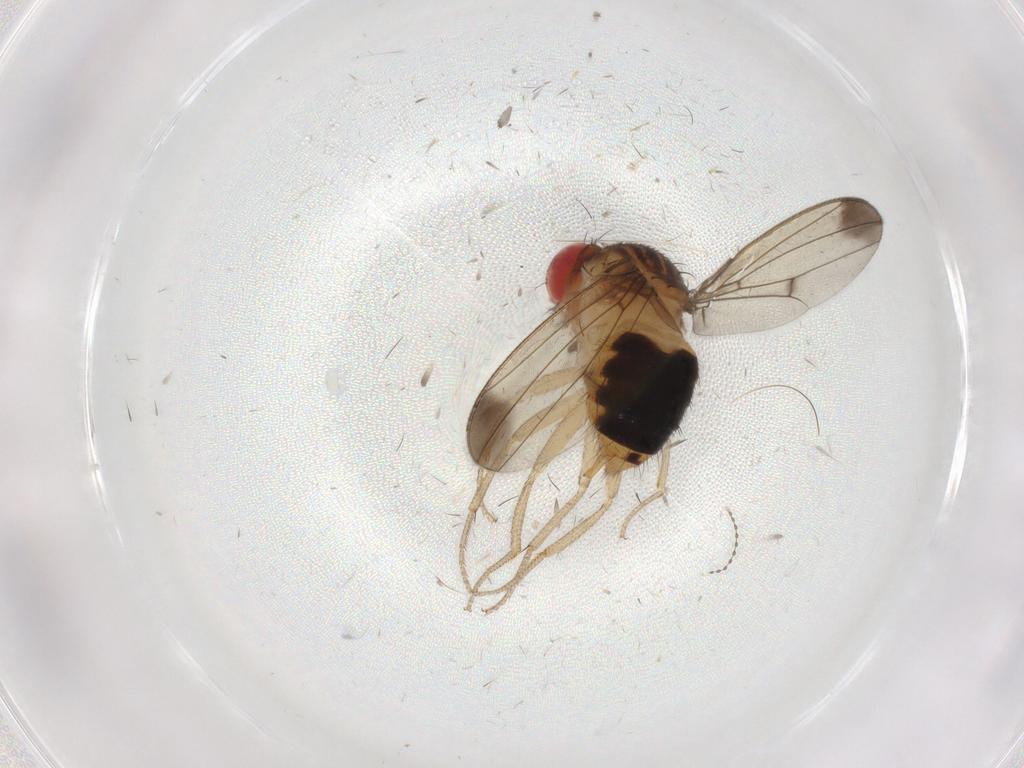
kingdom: Animalia
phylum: Arthropoda
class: Insecta
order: Diptera
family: Drosophilidae
